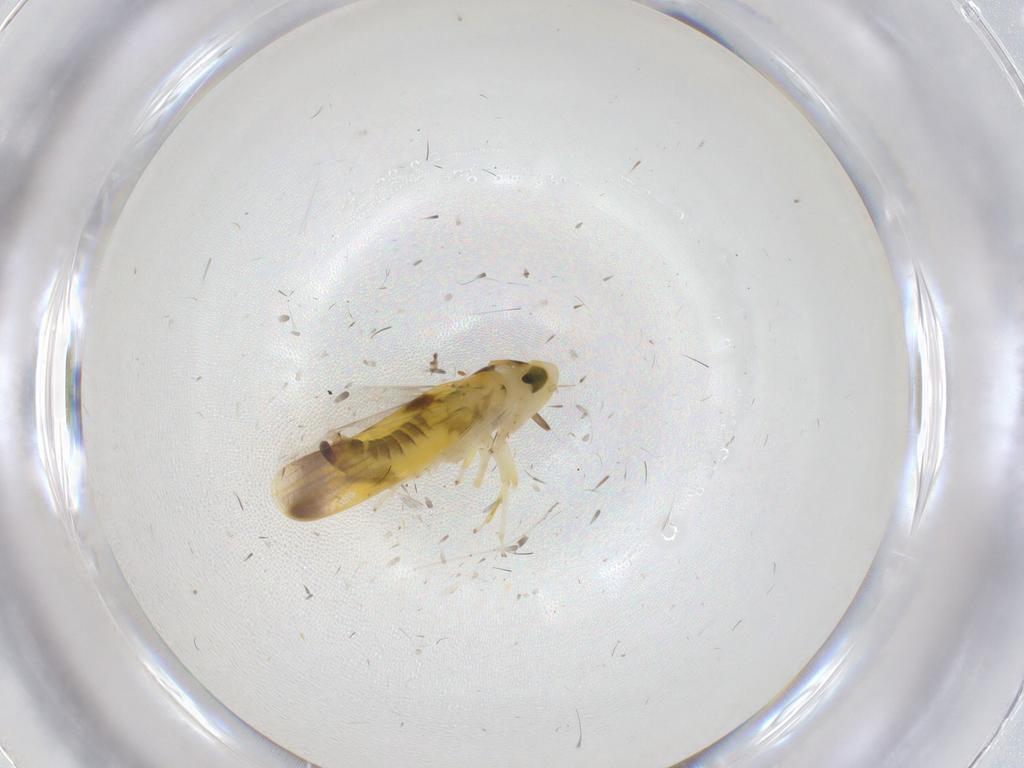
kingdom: Animalia
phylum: Arthropoda
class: Insecta
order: Hemiptera
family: Cicadellidae
